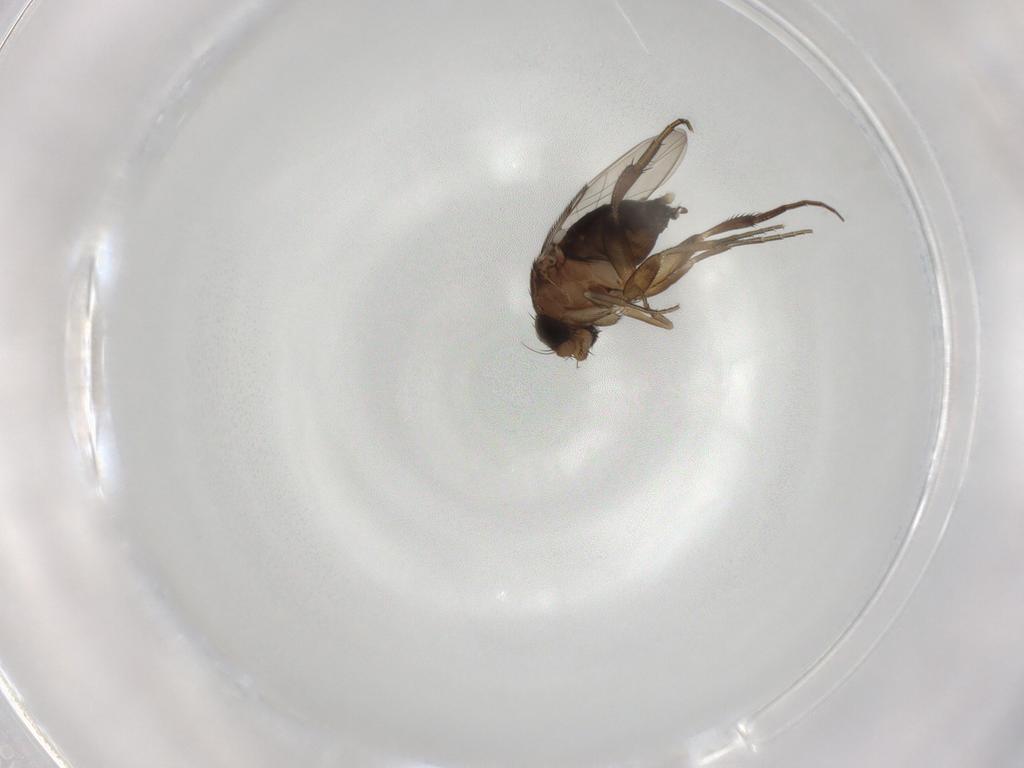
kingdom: Animalia
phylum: Arthropoda
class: Insecta
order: Diptera
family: Phoridae
